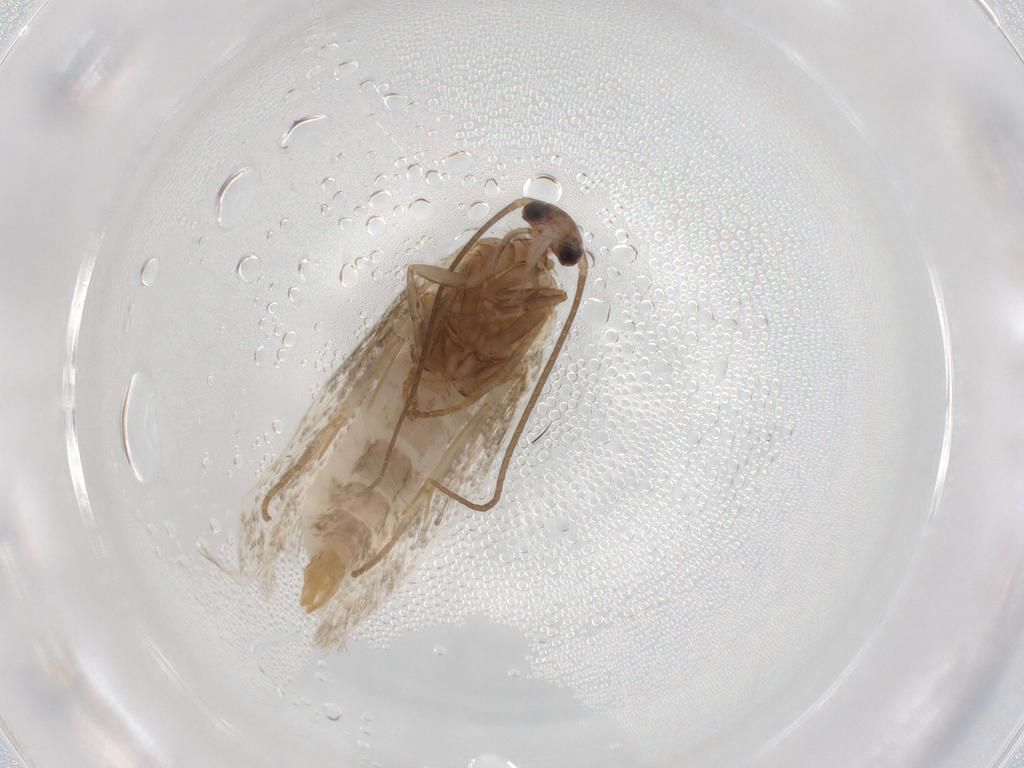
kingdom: Animalia
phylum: Arthropoda
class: Insecta
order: Lepidoptera
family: Elachistidae
